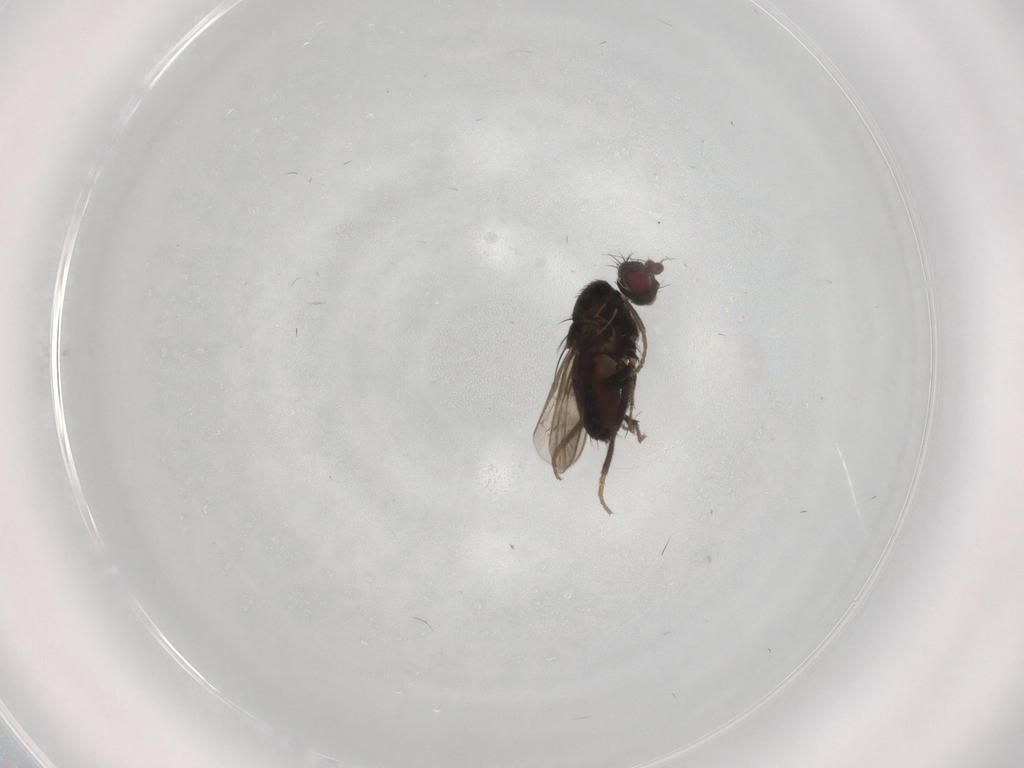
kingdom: Animalia
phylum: Arthropoda
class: Insecta
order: Diptera
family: Sphaeroceridae
